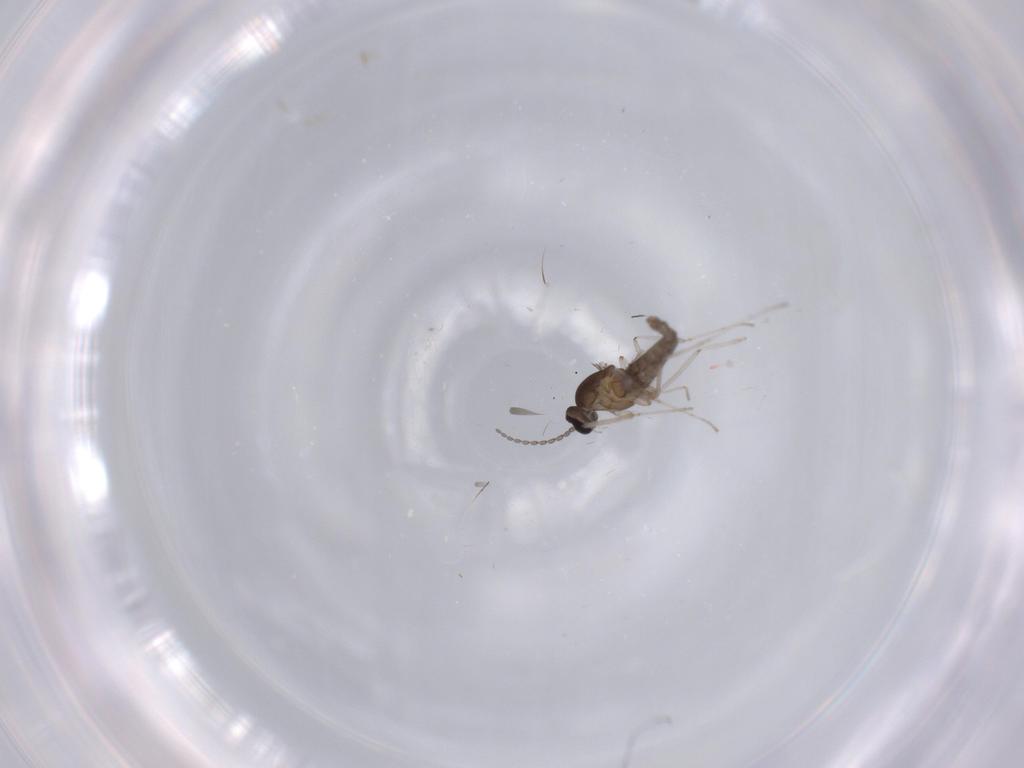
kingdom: Animalia
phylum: Arthropoda
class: Insecta
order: Diptera
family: Cecidomyiidae
